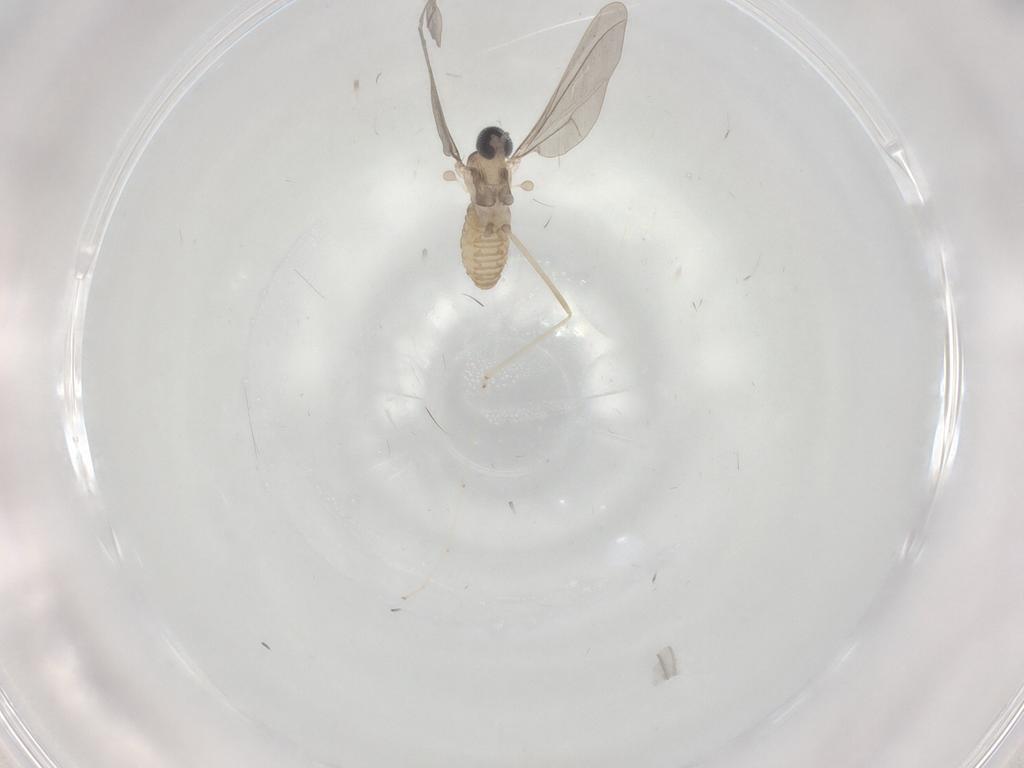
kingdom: Animalia
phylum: Arthropoda
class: Insecta
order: Diptera
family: Cecidomyiidae
